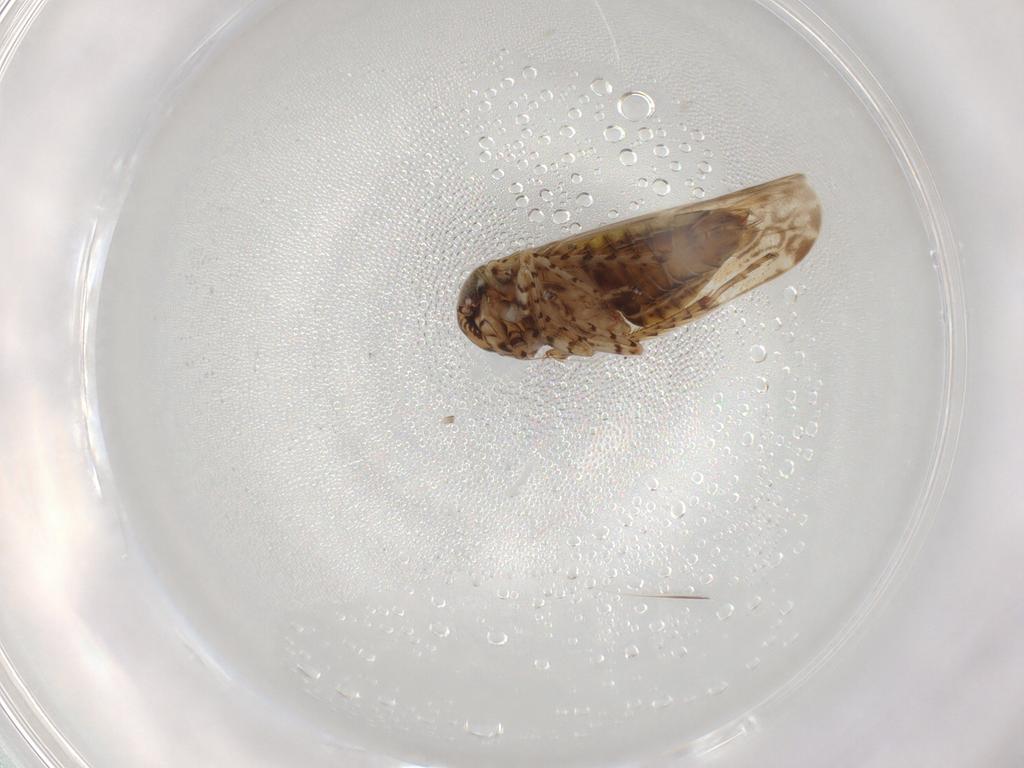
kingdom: Animalia
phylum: Arthropoda
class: Insecta
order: Hemiptera
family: Cicadellidae
